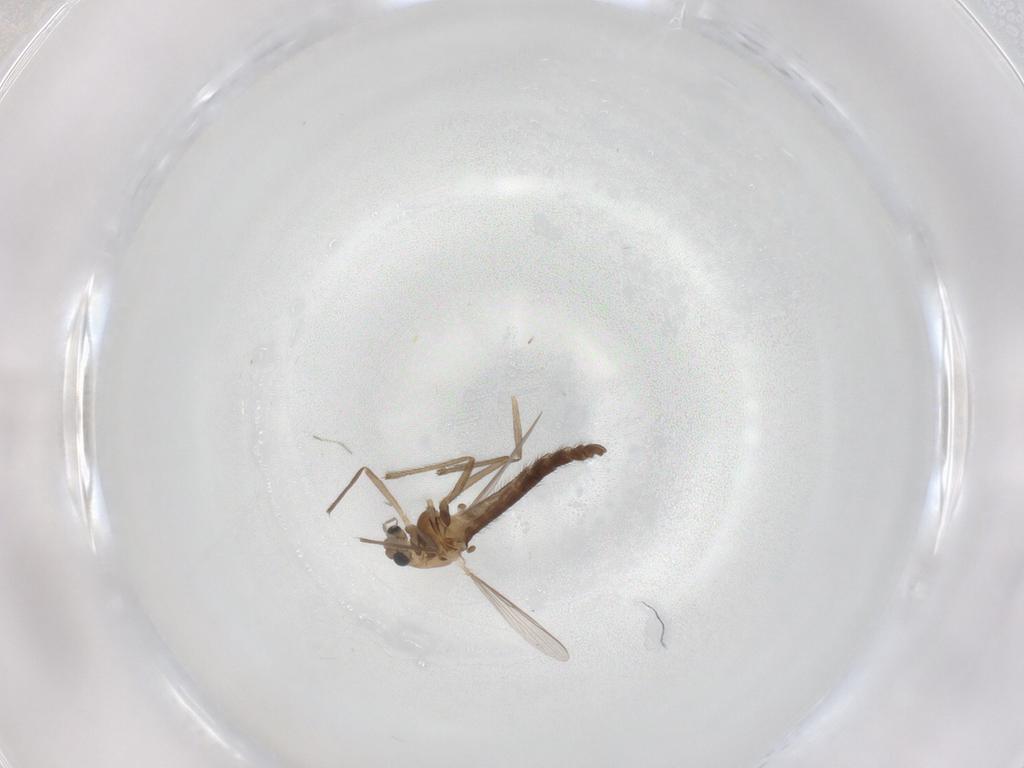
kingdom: Animalia
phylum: Arthropoda
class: Insecta
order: Diptera
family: Chironomidae
